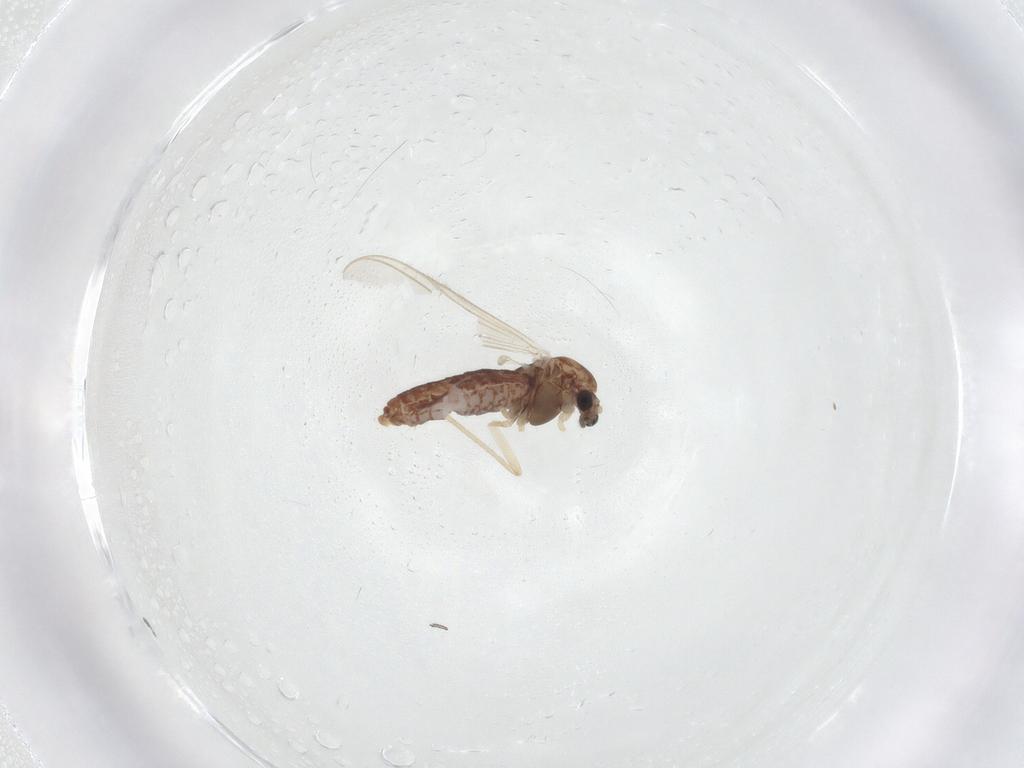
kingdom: Animalia
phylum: Arthropoda
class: Insecta
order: Diptera
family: Chironomidae
